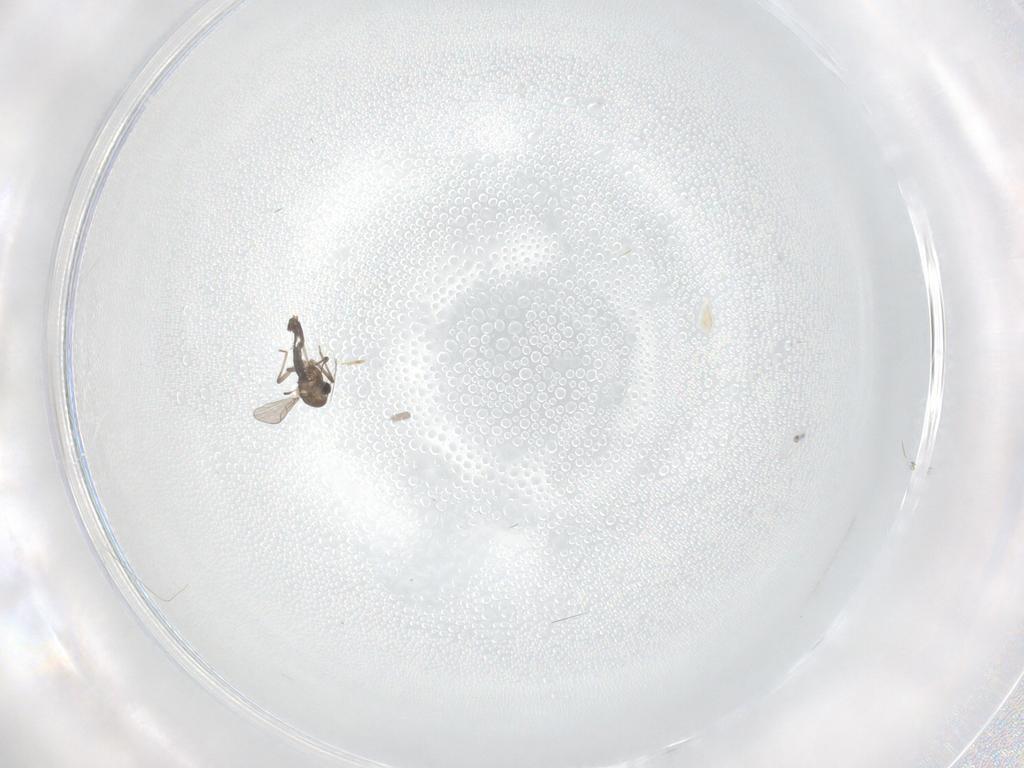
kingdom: Animalia
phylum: Arthropoda
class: Insecta
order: Diptera
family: Chironomidae
